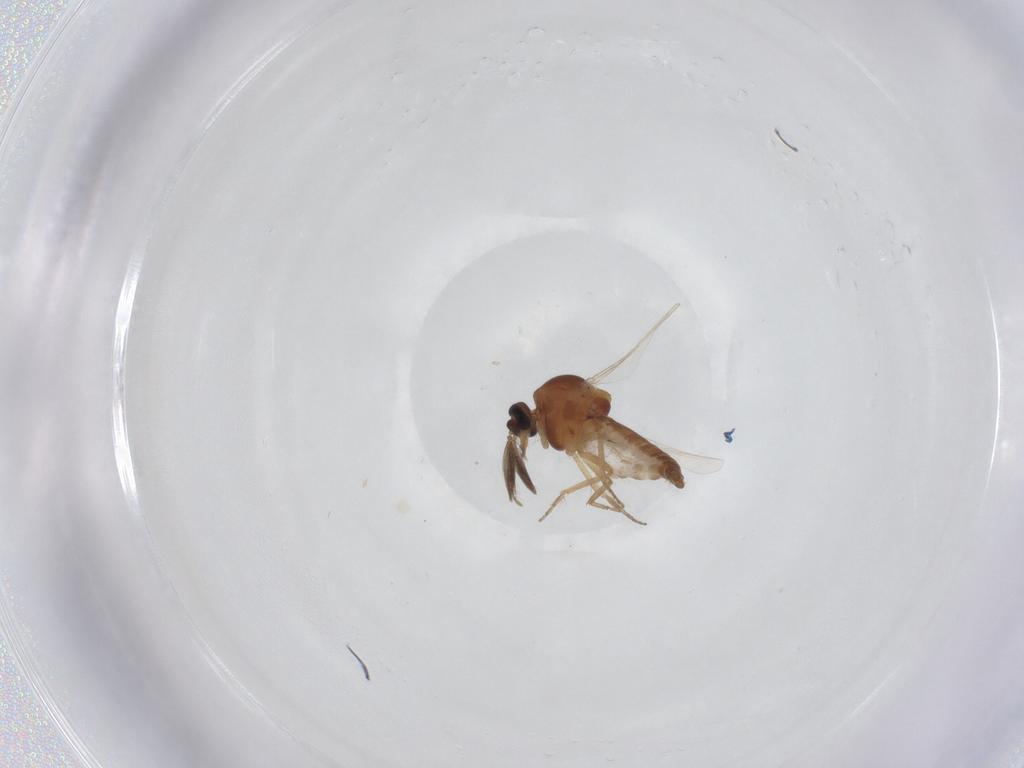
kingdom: Animalia
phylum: Arthropoda
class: Insecta
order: Diptera
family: Ceratopogonidae
